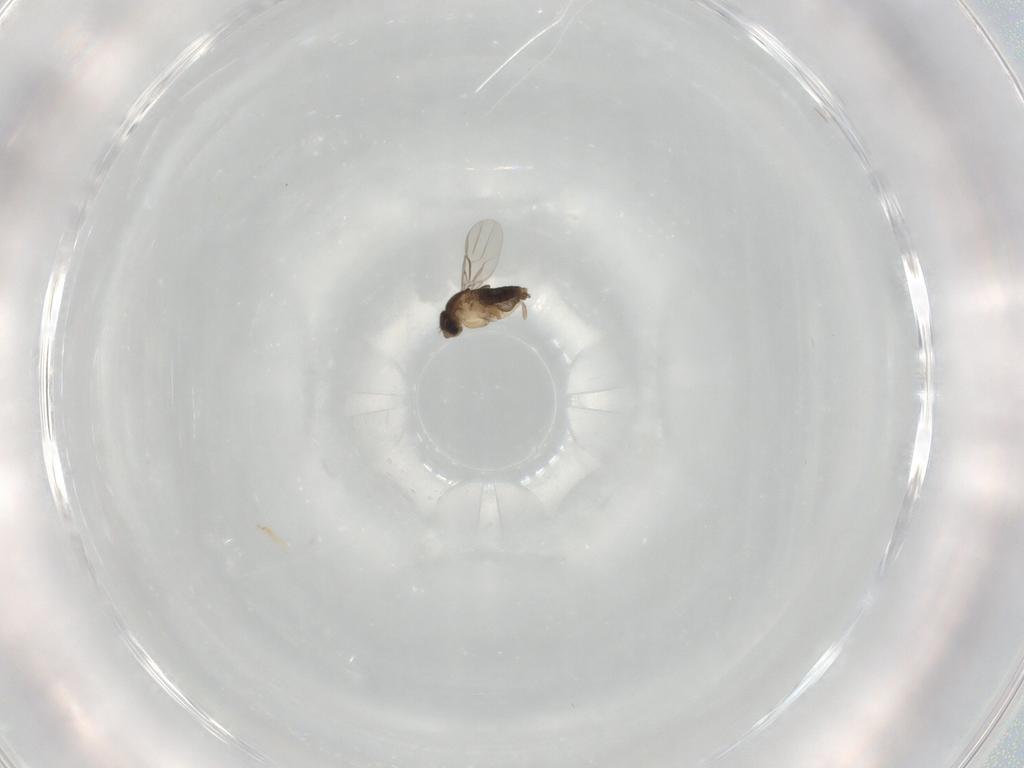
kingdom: Animalia
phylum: Arthropoda
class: Insecta
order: Diptera
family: Phoridae
